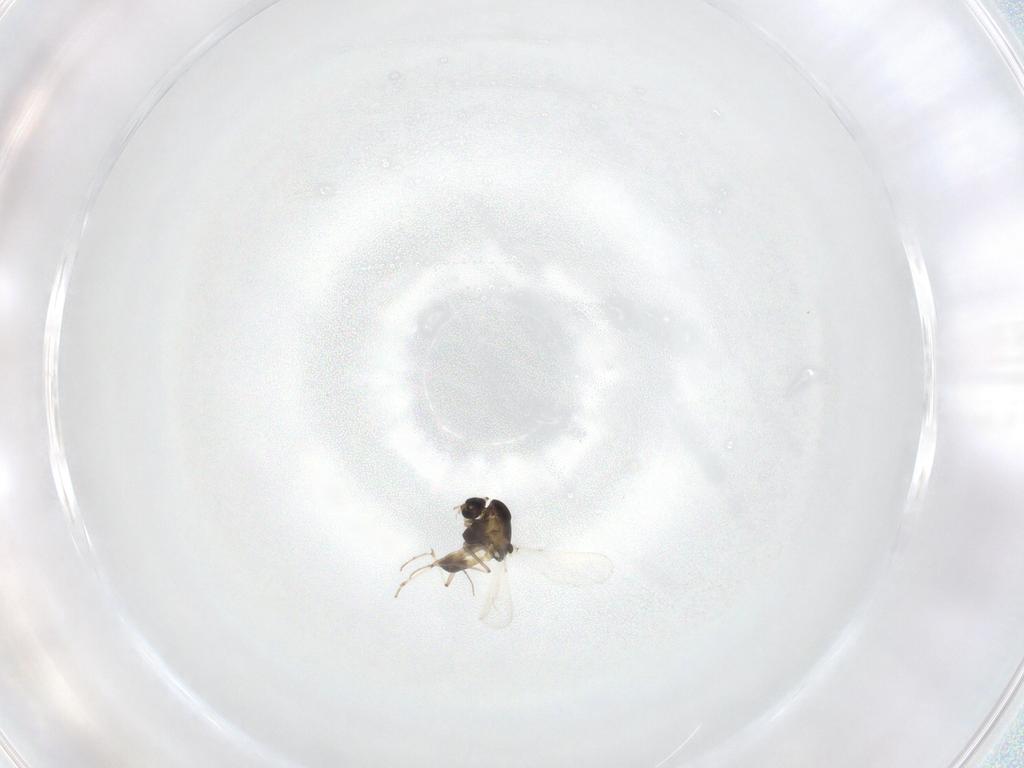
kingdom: Animalia
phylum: Arthropoda
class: Insecta
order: Diptera
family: Chironomidae
